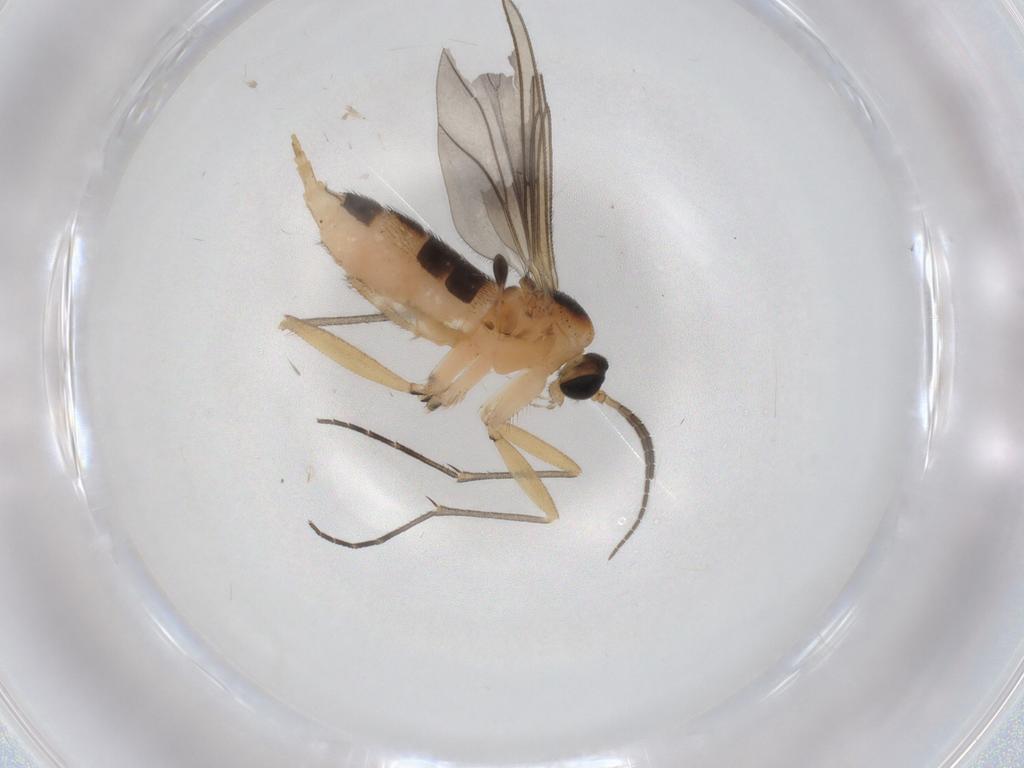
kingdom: Animalia
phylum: Arthropoda
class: Insecta
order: Diptera
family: Sciaridae
